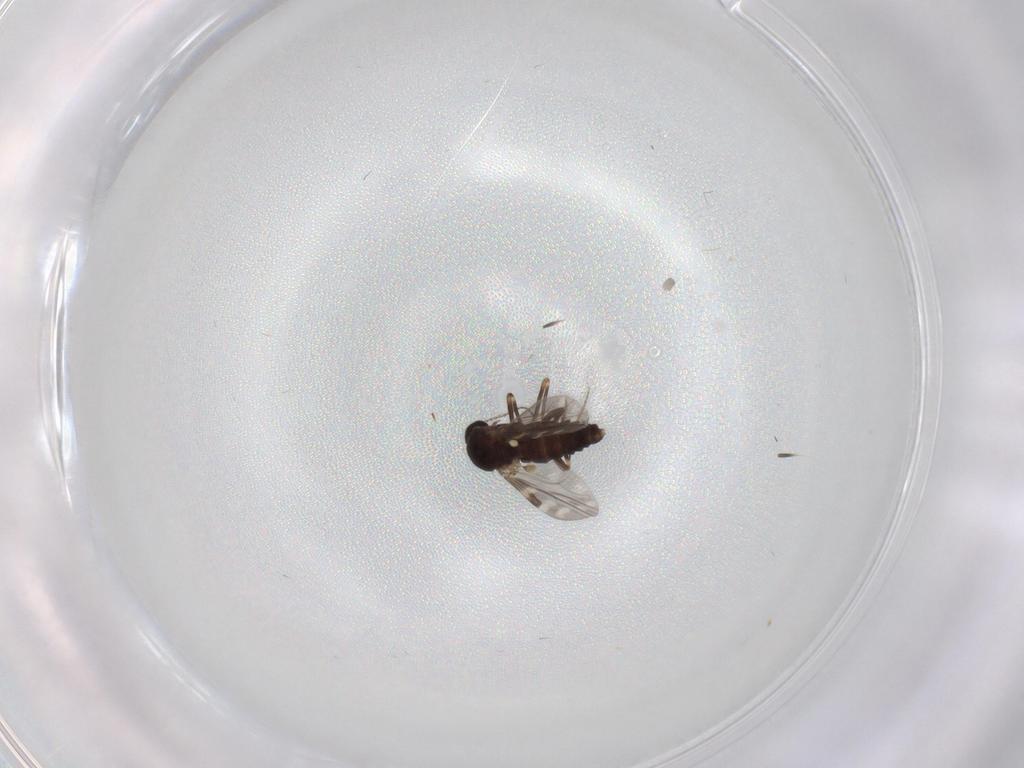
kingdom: Animalia
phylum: Arthropoda
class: Insecta
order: Diptera
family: Ceratopogonidae
